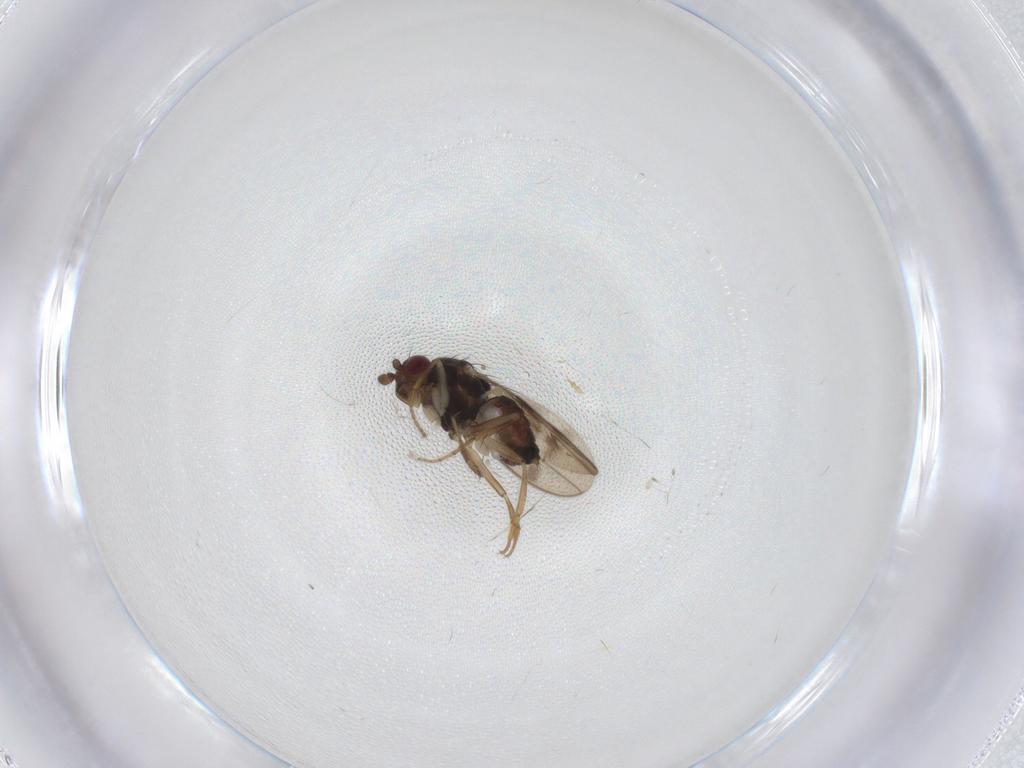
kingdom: Animalia
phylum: Arthropoda
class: Insecta
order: Diptera
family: Sphaeroceridae
